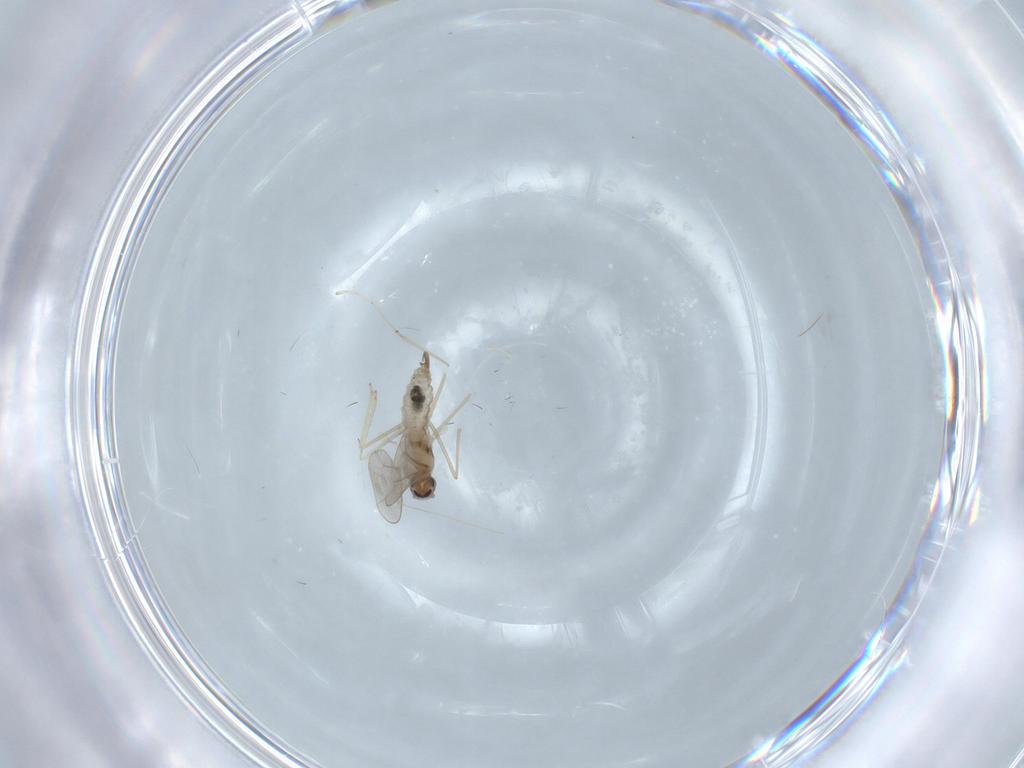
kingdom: Animalia
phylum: Arthropoda
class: Insecta
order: Diptera
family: Cecidomyiidae
